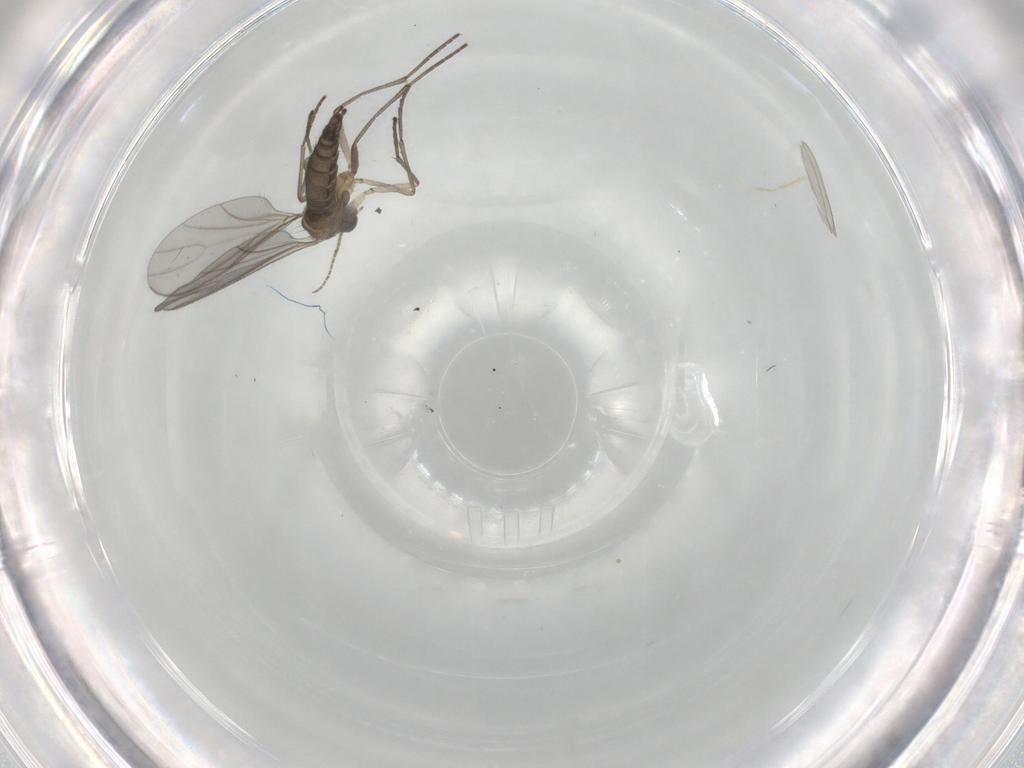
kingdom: Animalia
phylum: Arthropoda
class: Insecta
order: Diptera
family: Sciaridae
